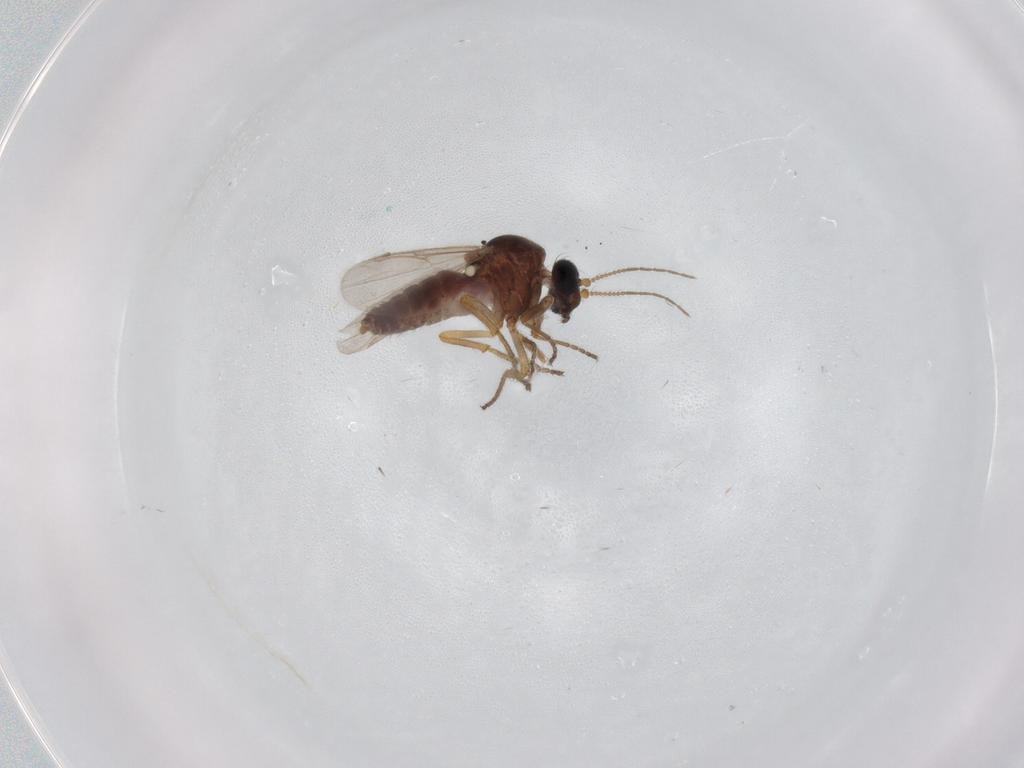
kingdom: Animalia
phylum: Arthropoda
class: Insecta
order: Diptera
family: Ceratopogonidae
